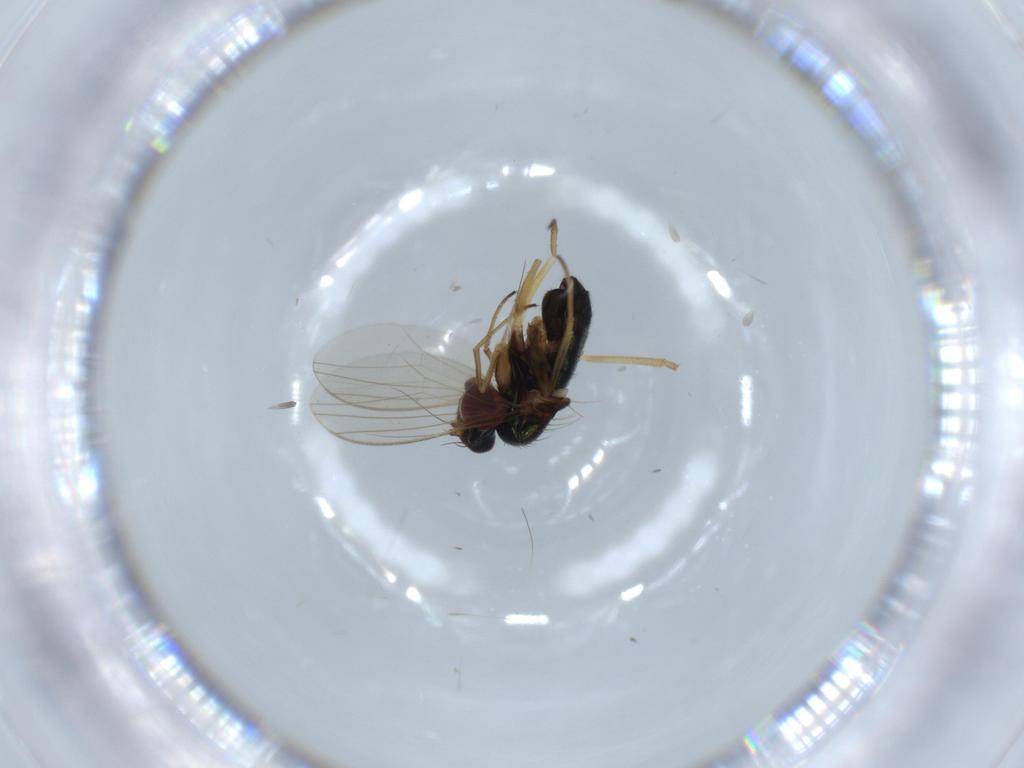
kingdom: Animalia
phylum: Arthropoda
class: Insecta
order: Diptera
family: Dolichopodidae
